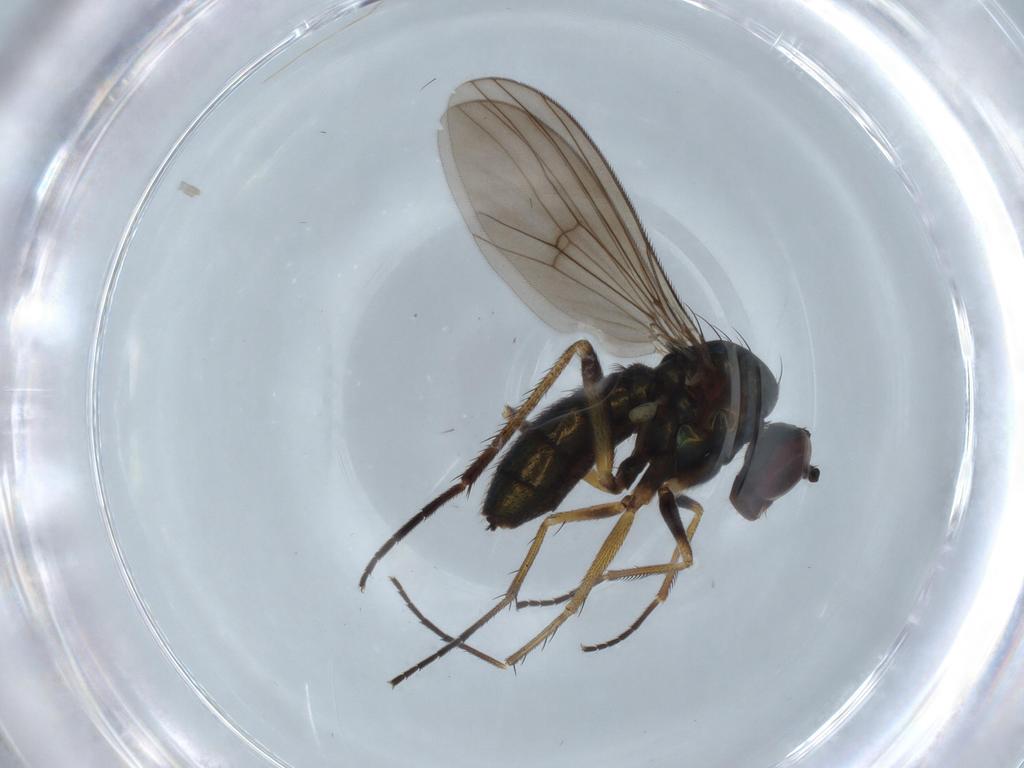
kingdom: Animalia
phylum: Arthropoda
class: Insecta
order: Diptera
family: Dolichopodidae
